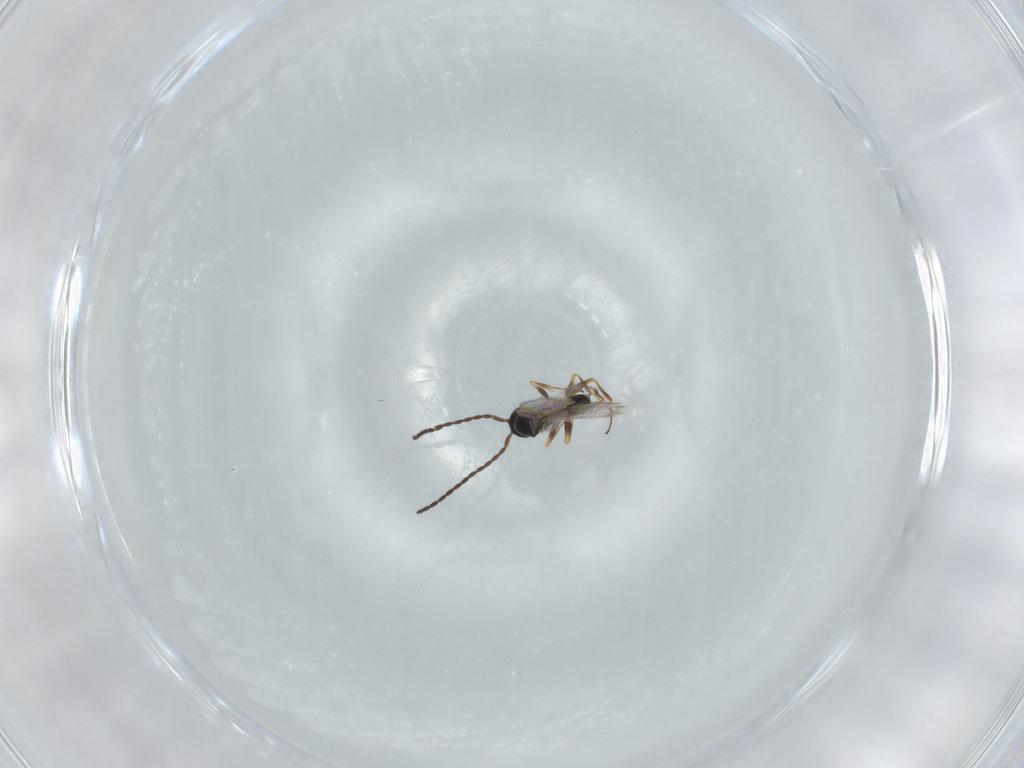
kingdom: Animalia
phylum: Arthropoda
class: Insecta
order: Hymenoptera
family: Figitidae
